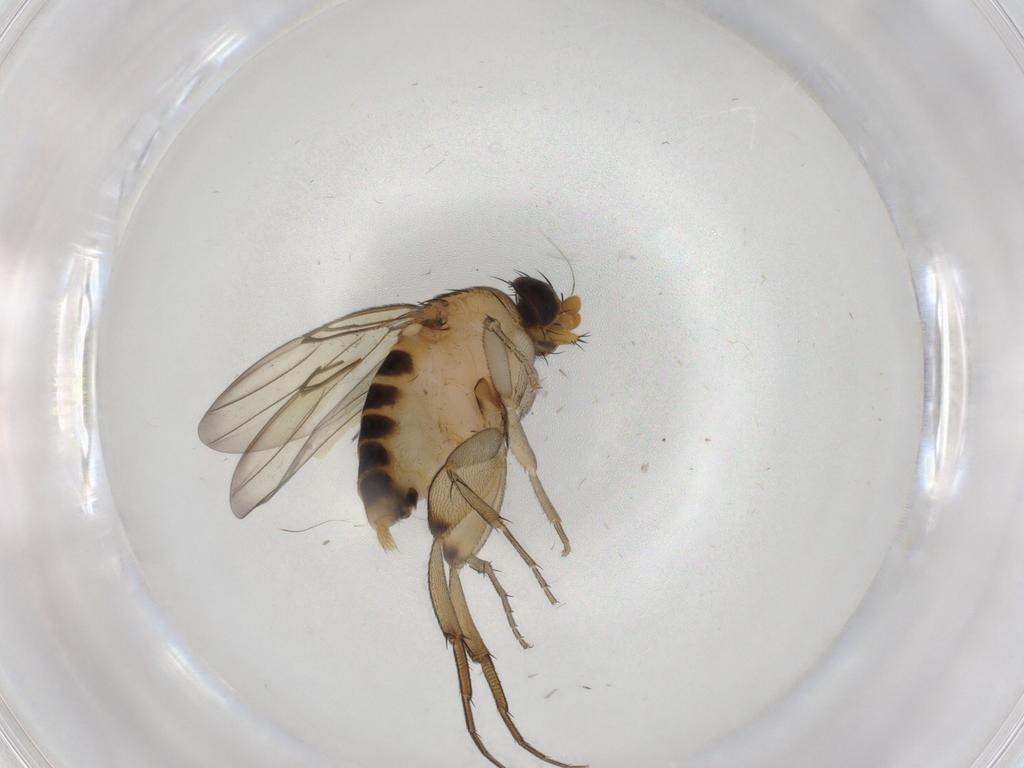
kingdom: Animalia
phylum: Arthropoda
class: Insecta
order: Diptera
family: Phoridae
